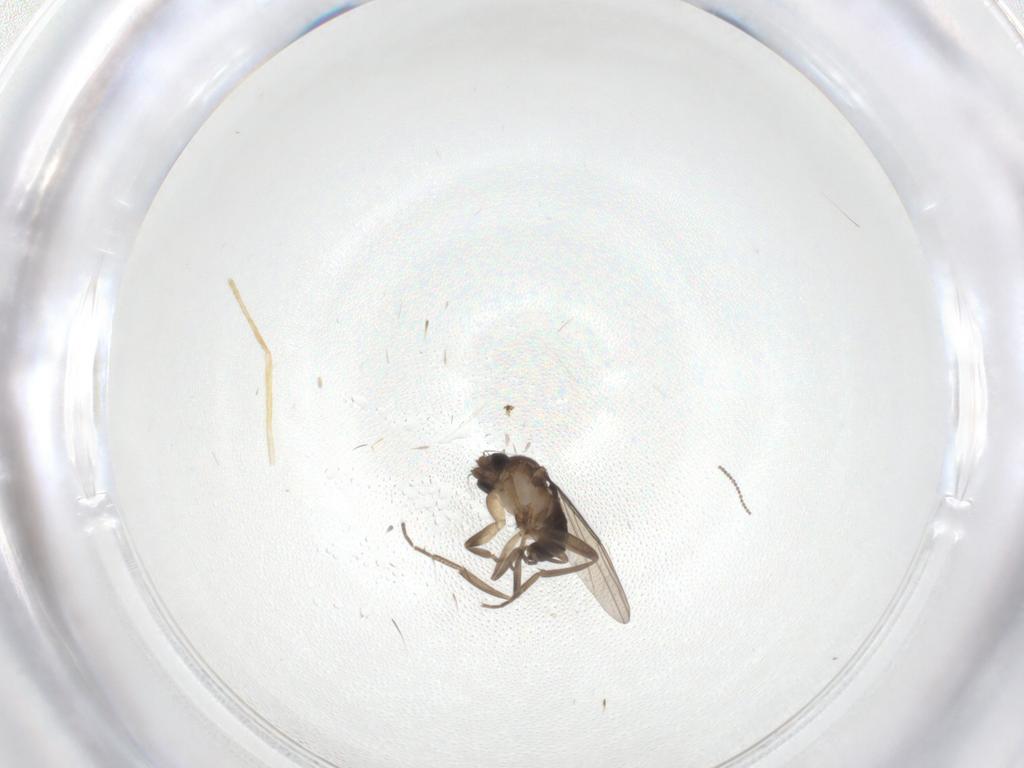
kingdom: Animalia
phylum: Arthropoda
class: Insecta
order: Diptera
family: Chironomidae
